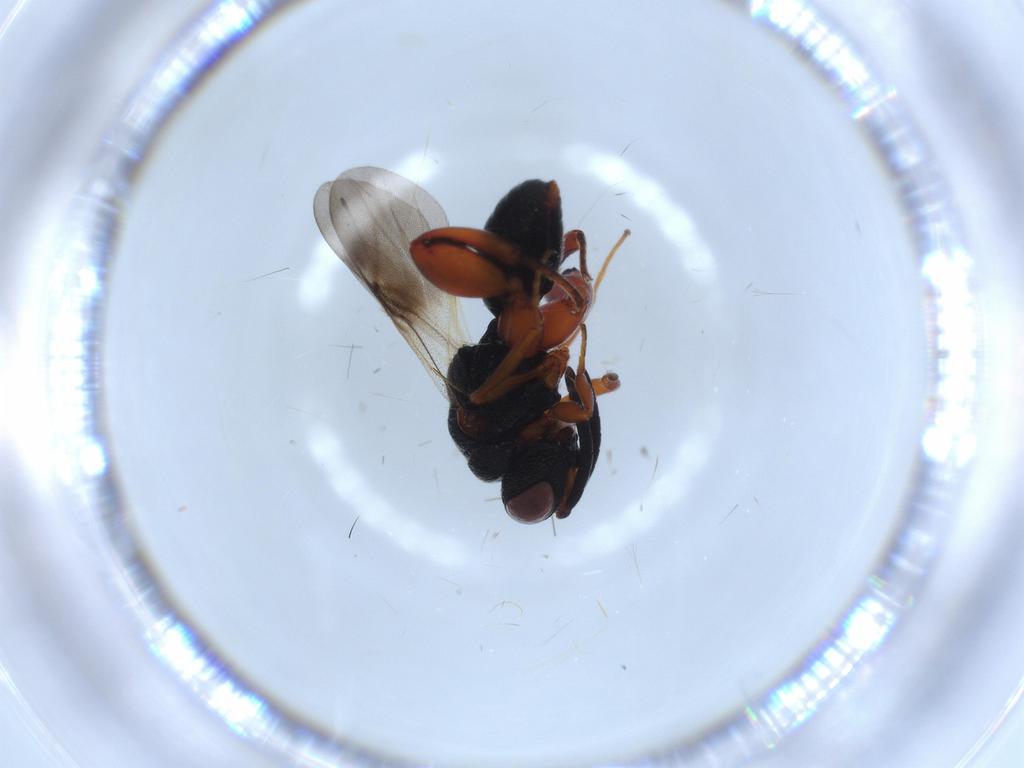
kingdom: Animalia
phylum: Arthropoda
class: Insecta
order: Hymenoptera
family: Chalcididae
